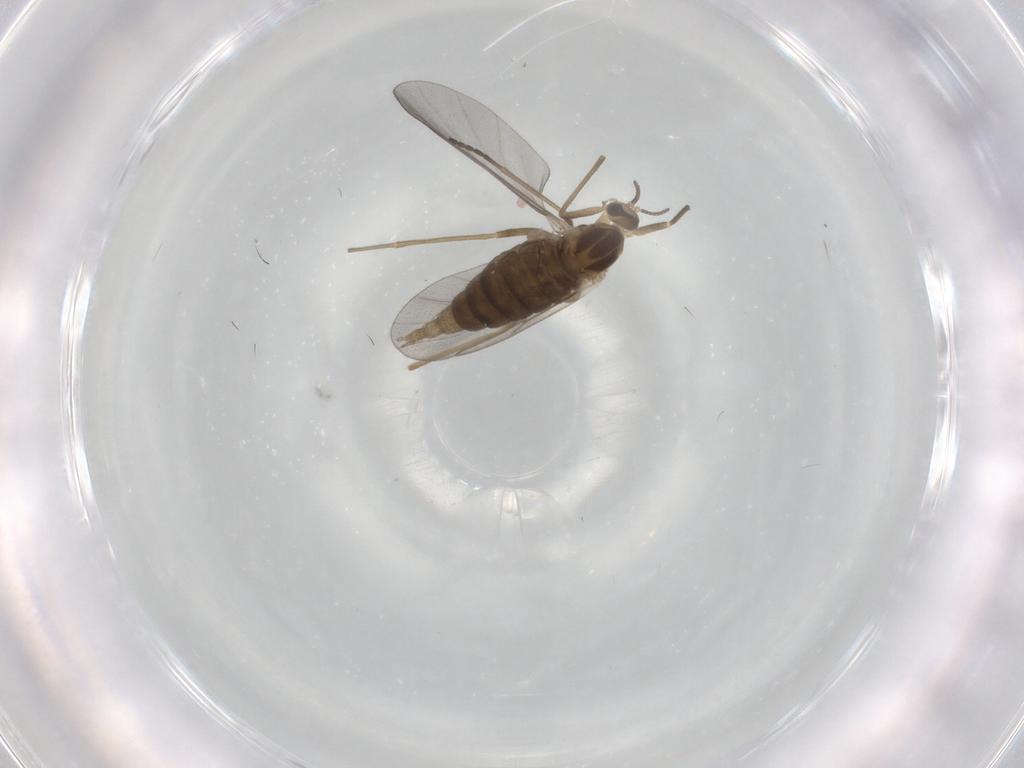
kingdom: Animalia
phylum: Arthropoda
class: Insecta
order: Diptera
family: Cecidomyiidae
